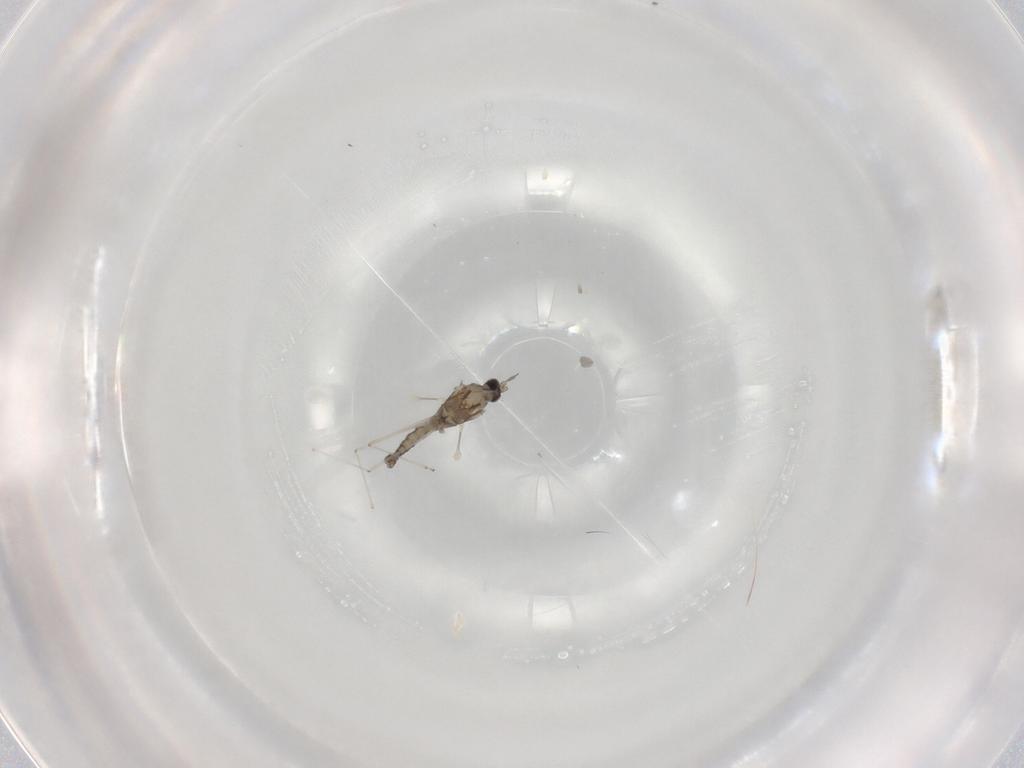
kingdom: Animalia
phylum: Arthropoda
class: Insecta
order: Diptera
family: Cecidomyiidae
